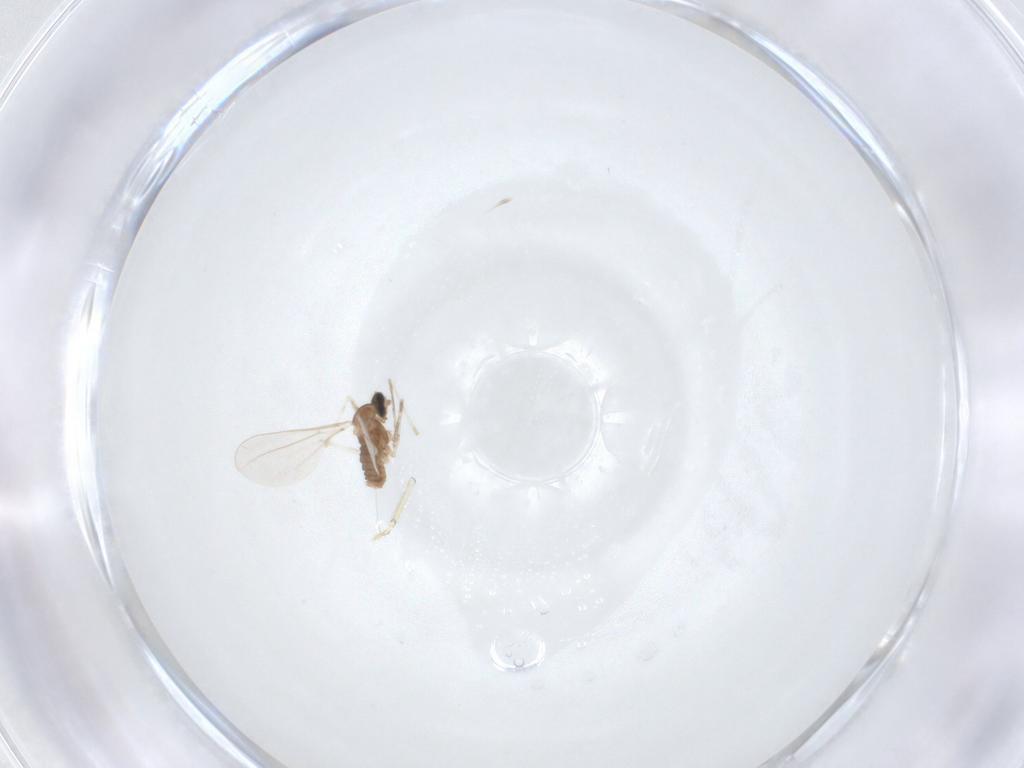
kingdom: Animalia
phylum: Arthropoda
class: Insecta
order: Diptera
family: Cecidomyiidae
